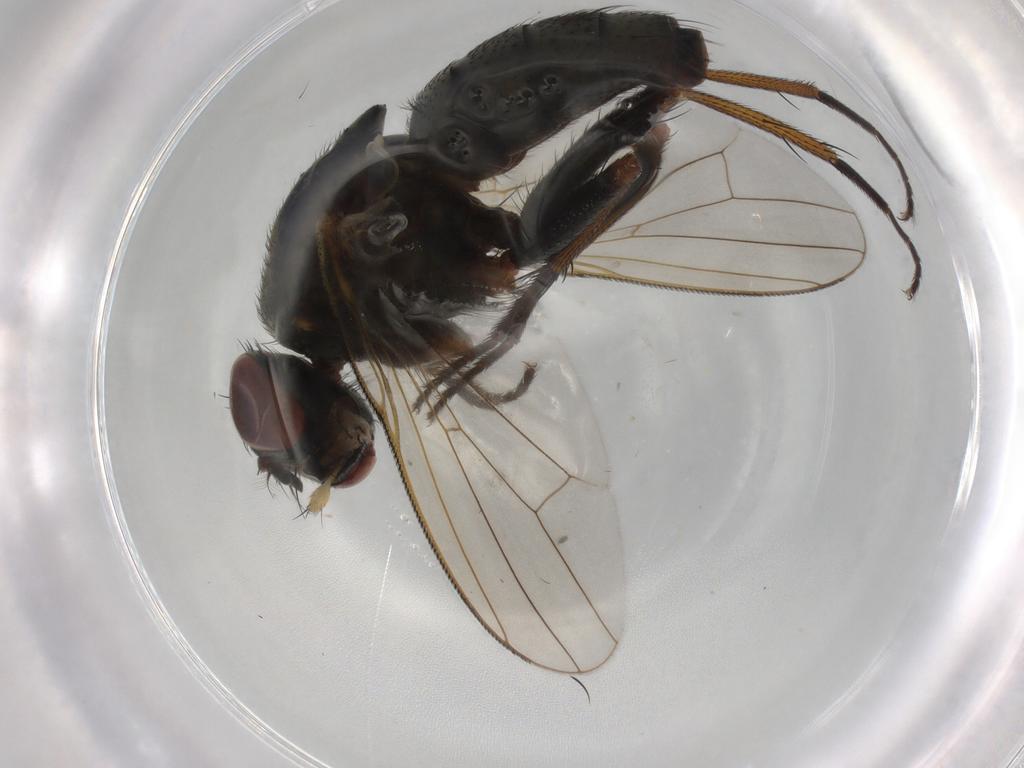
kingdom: Animalia
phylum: Arthropoda
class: Insecta
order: Diptera
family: Muscidae
